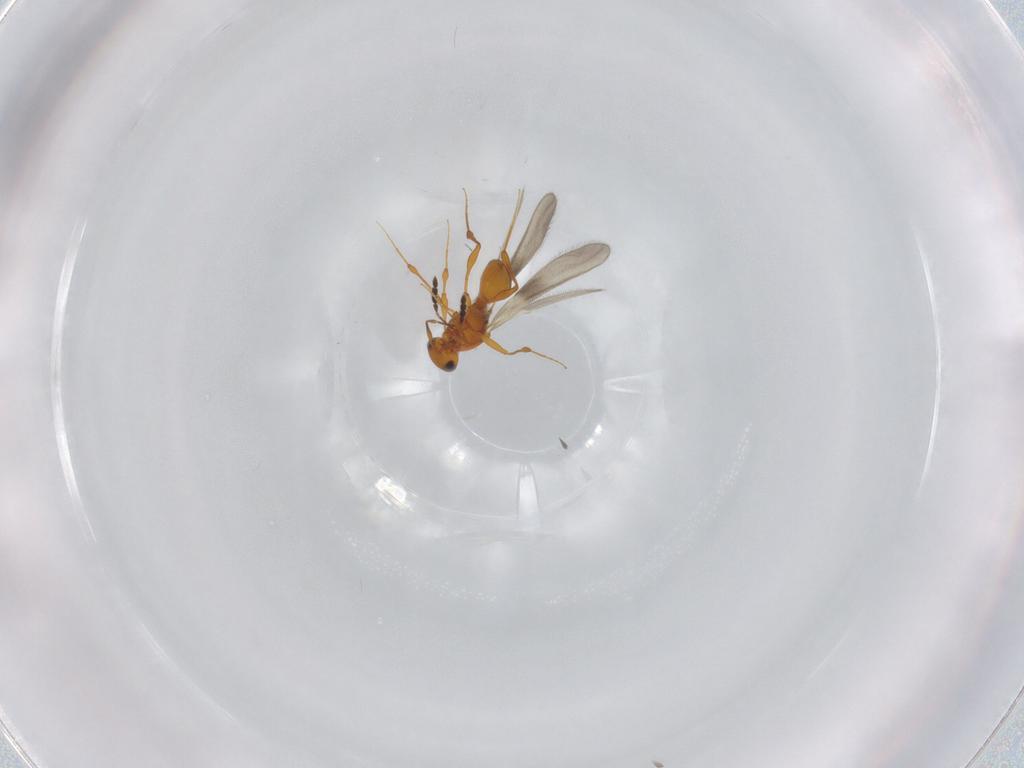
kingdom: Animalia
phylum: Arthropoda
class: Insecta
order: Hymenoptera
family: Platygastridae
